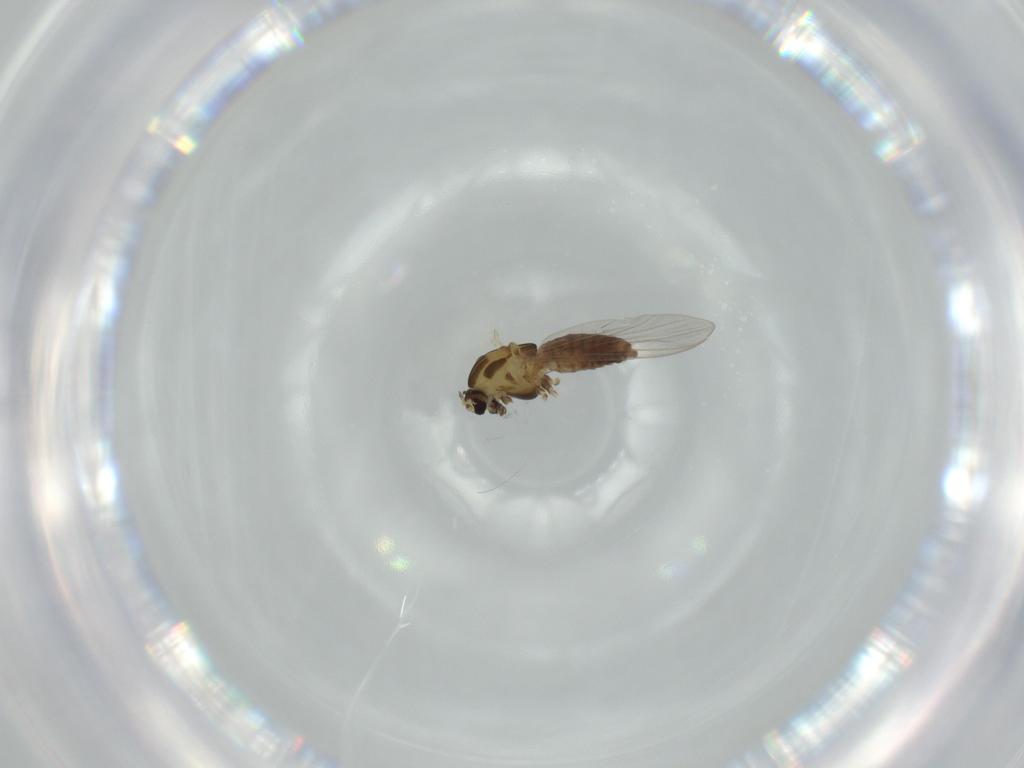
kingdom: Animalia
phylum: Arthropoda
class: Insecta
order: Diptera
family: Chironomidae
